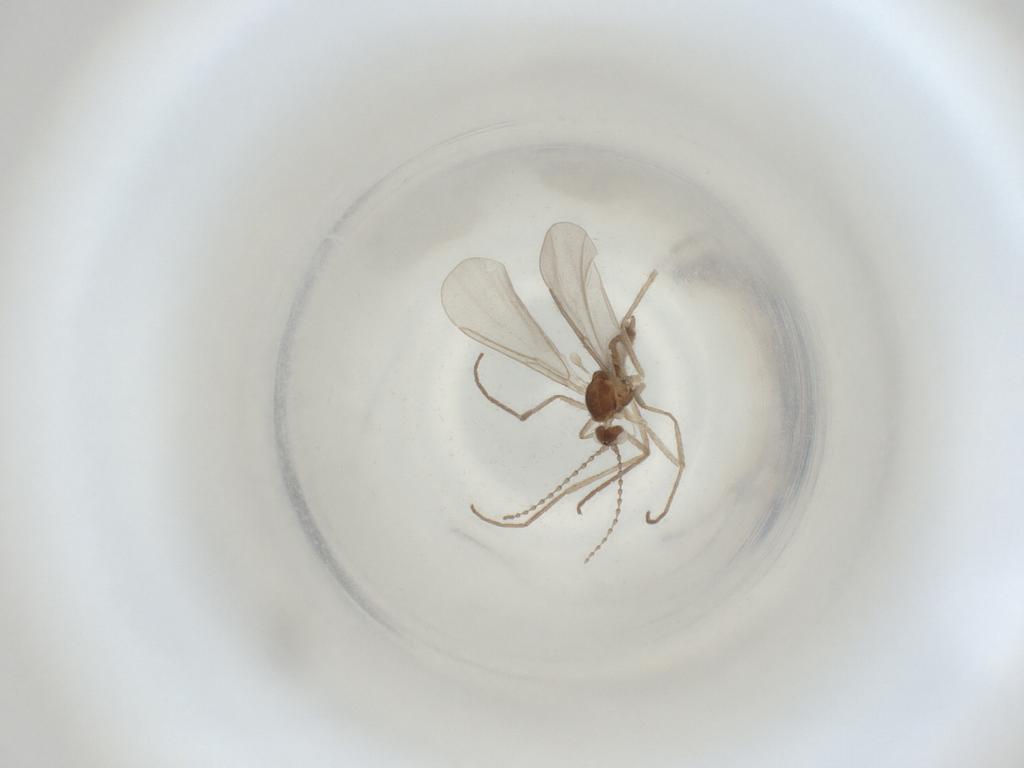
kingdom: Animalia
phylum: Arthropoda
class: Insecta
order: Diptera
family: Cecidomyiidae
